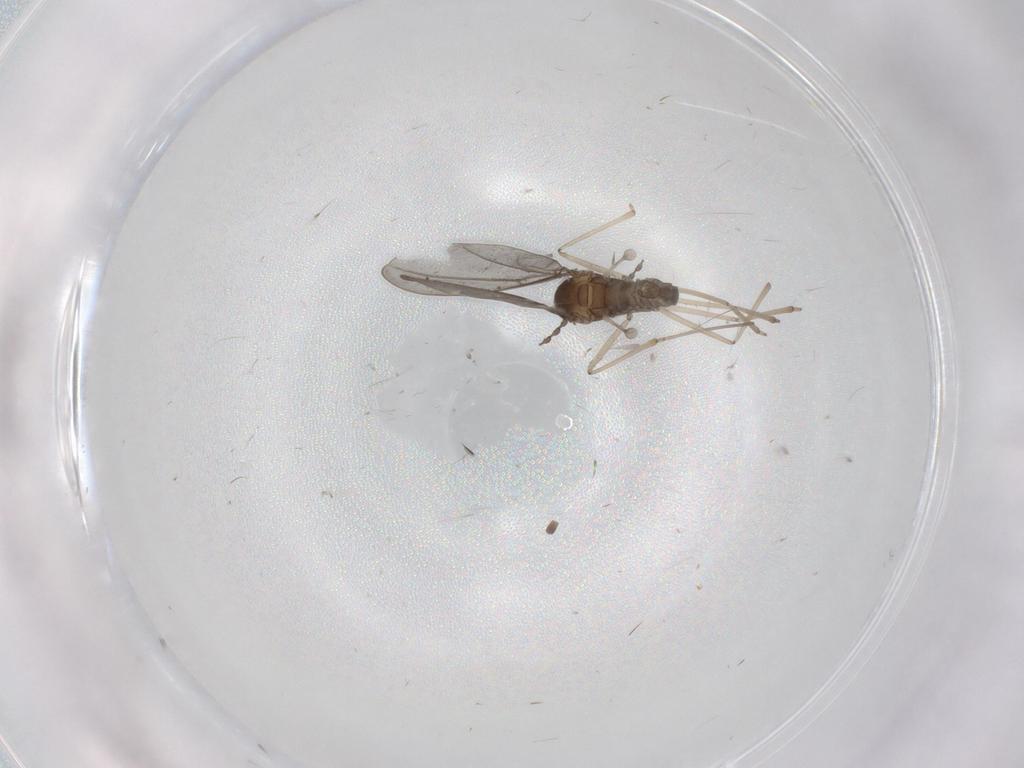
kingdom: Animalia
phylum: Arthropoda
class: Insecta
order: Diptera
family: Cecidomyiidae
